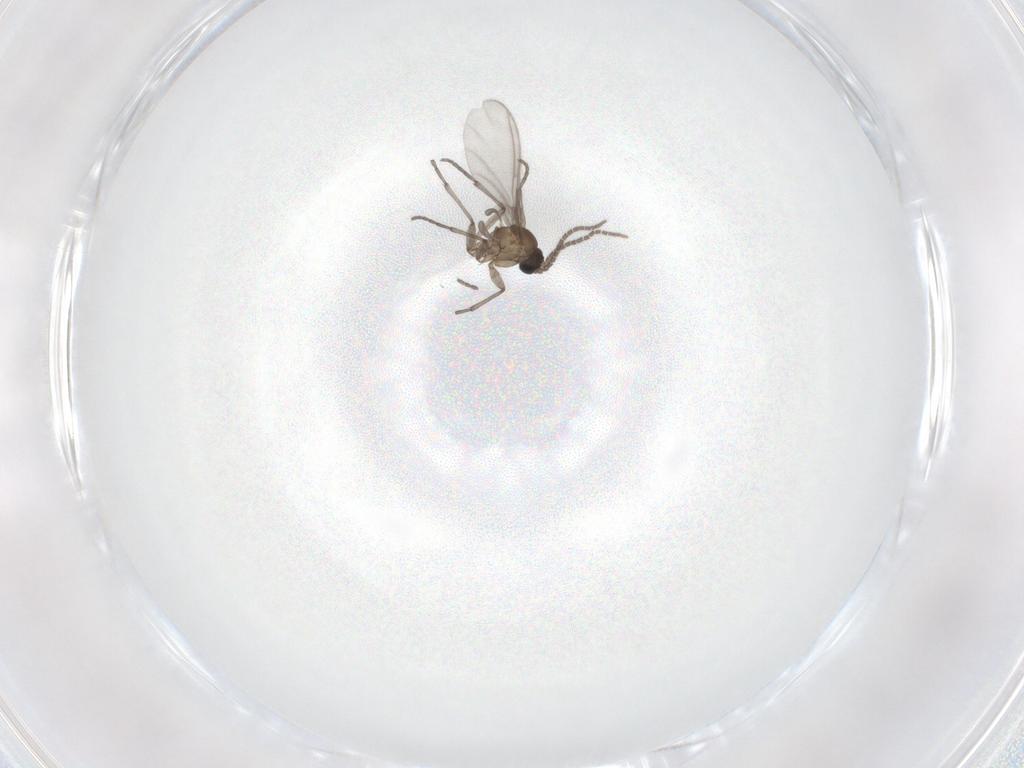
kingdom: Animalia
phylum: Arthropoda
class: Insecta
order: Diptera
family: Sciaridae
